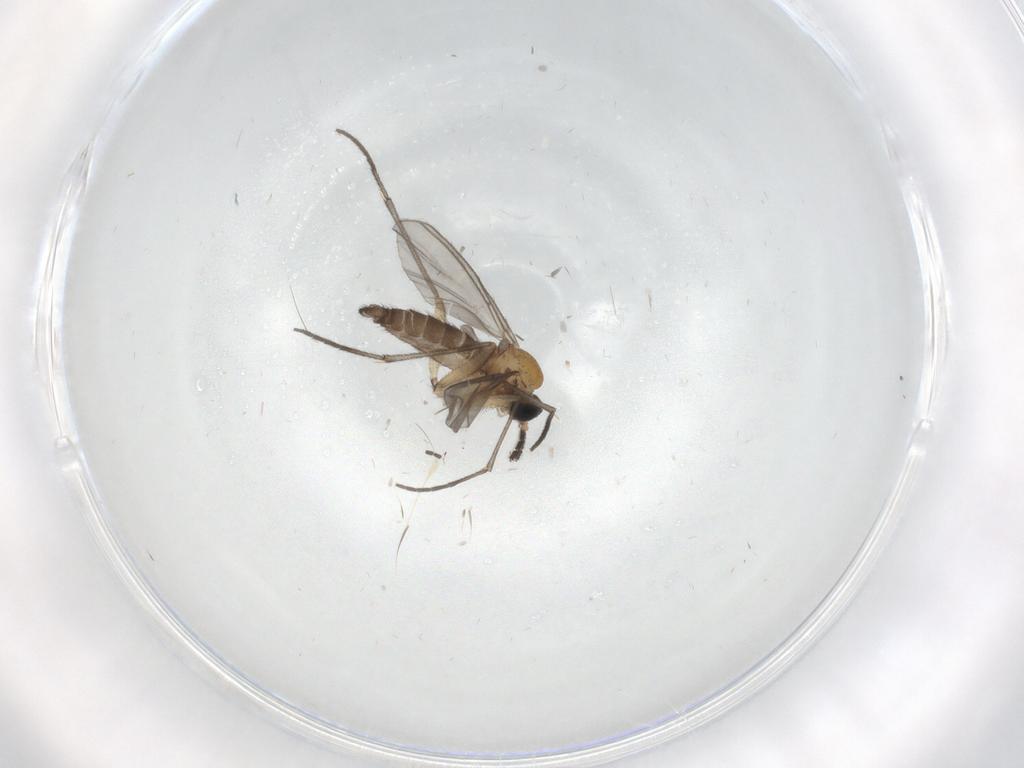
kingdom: Animalia
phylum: Arthropoda
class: Insecta
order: Diptera
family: Sciaridae
